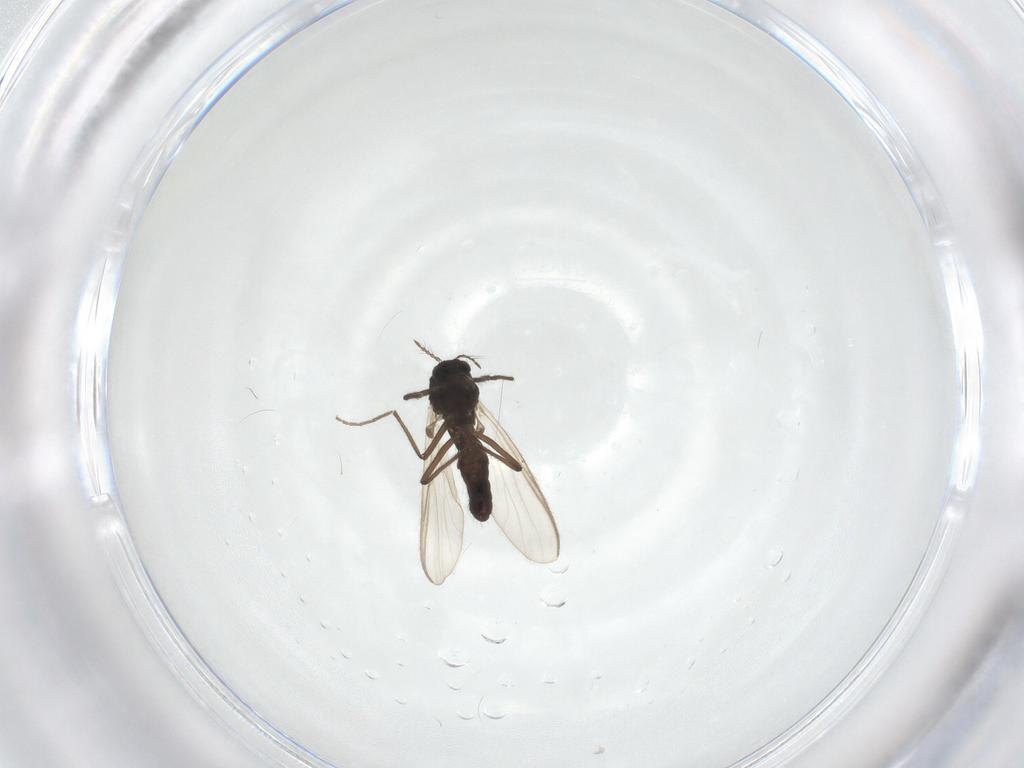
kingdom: Animalia
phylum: Arthropoda
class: Insecta
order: Diptera
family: Chironomidae
